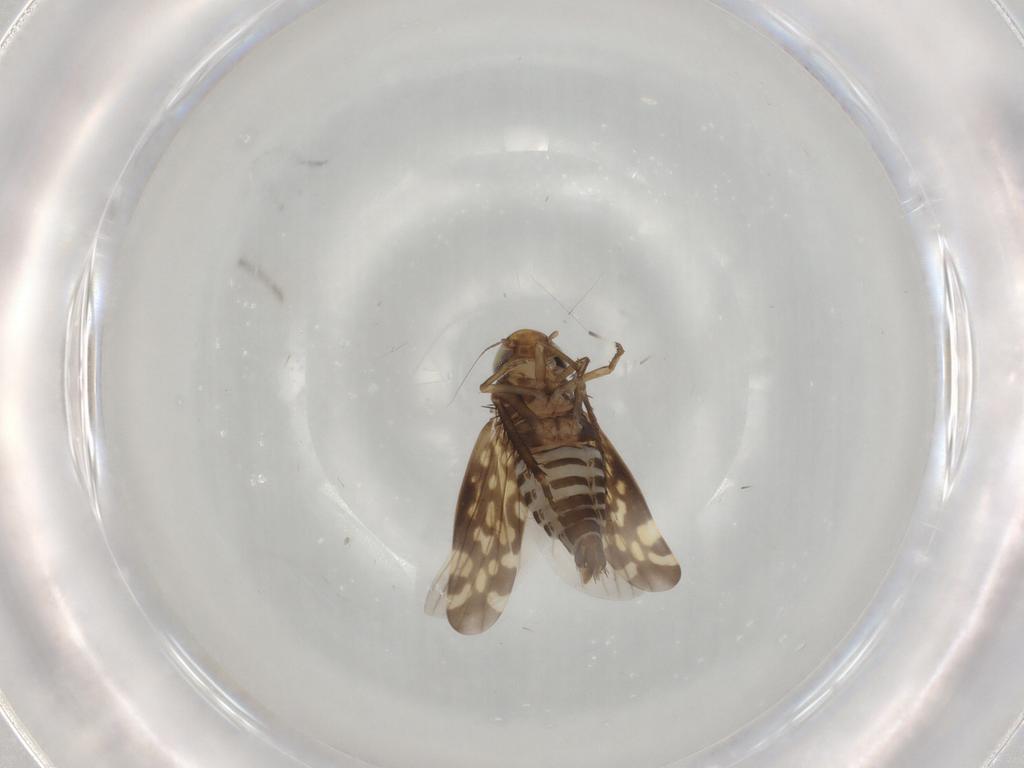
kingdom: Animalia
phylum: Arthropoda
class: Insecta
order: Hemiptera
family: Cicadellidae
